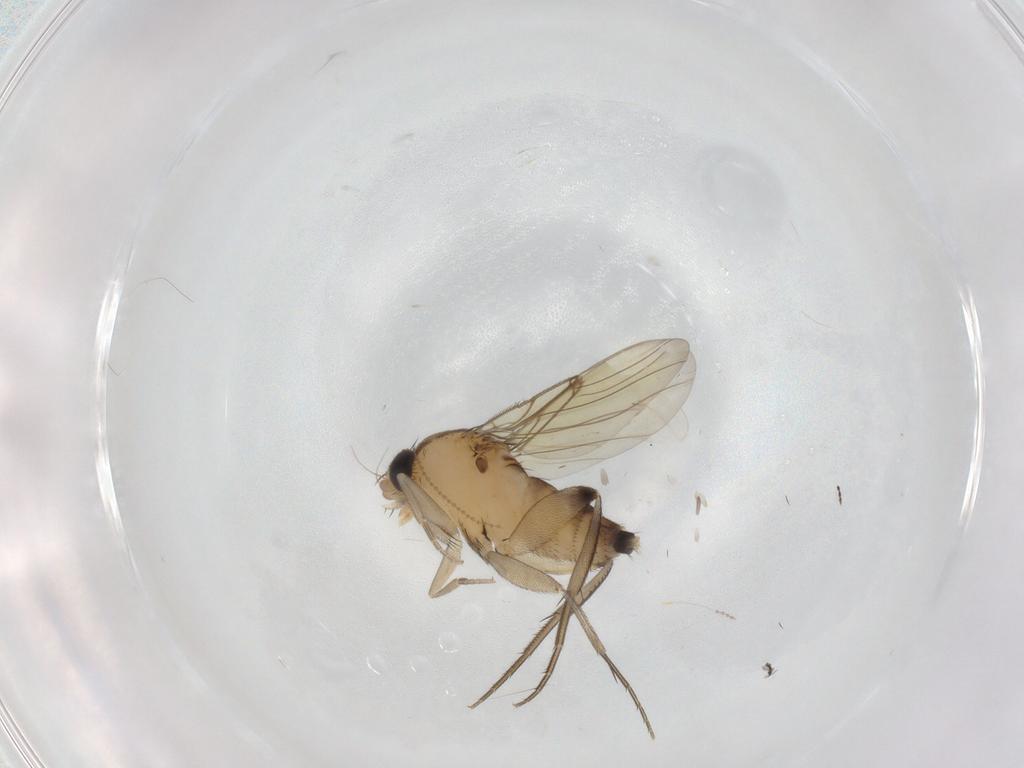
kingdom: Animalia
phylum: Arthropoda
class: Insecta
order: Diptera
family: Phoridae
